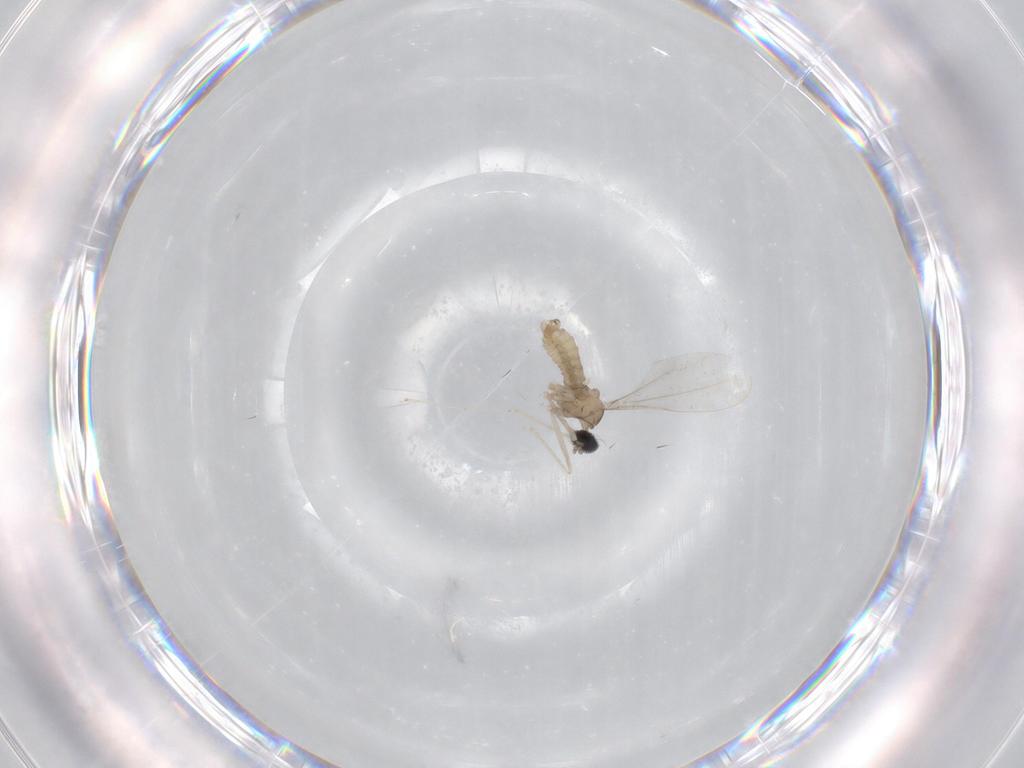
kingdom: Animalia
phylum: Arthropoda
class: Insecta
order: Diptera
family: Cecidomyiidae
